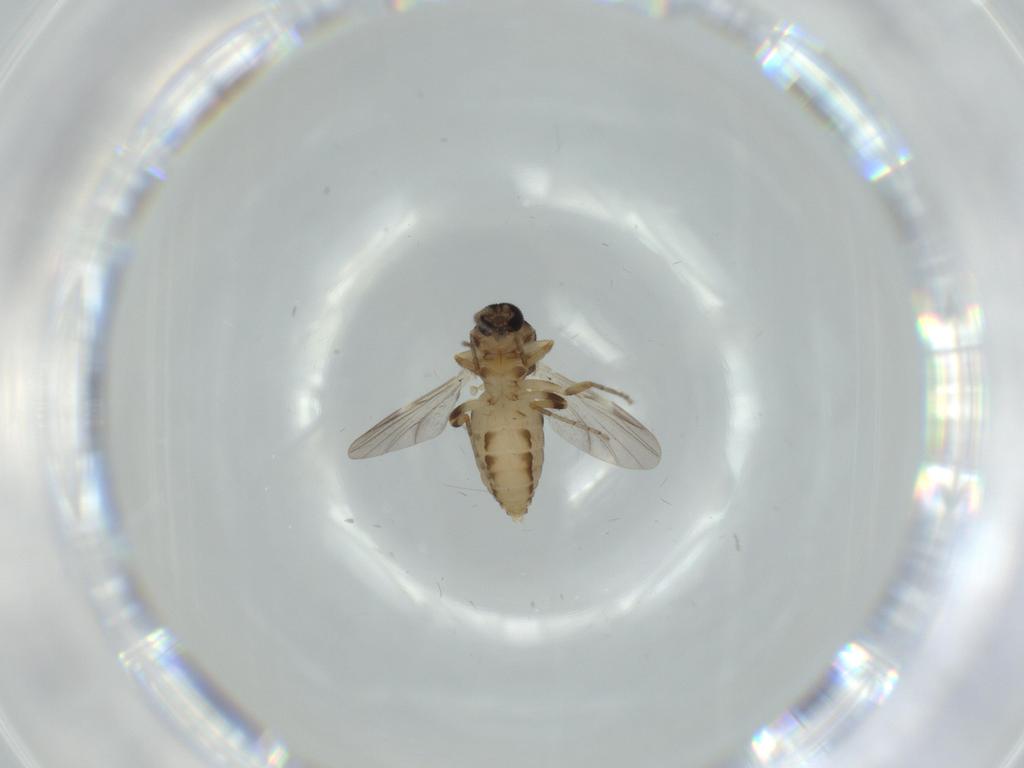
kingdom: Animalia
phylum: Arthropoda
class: Insecta
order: Diptera
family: Ceratopogonidae
